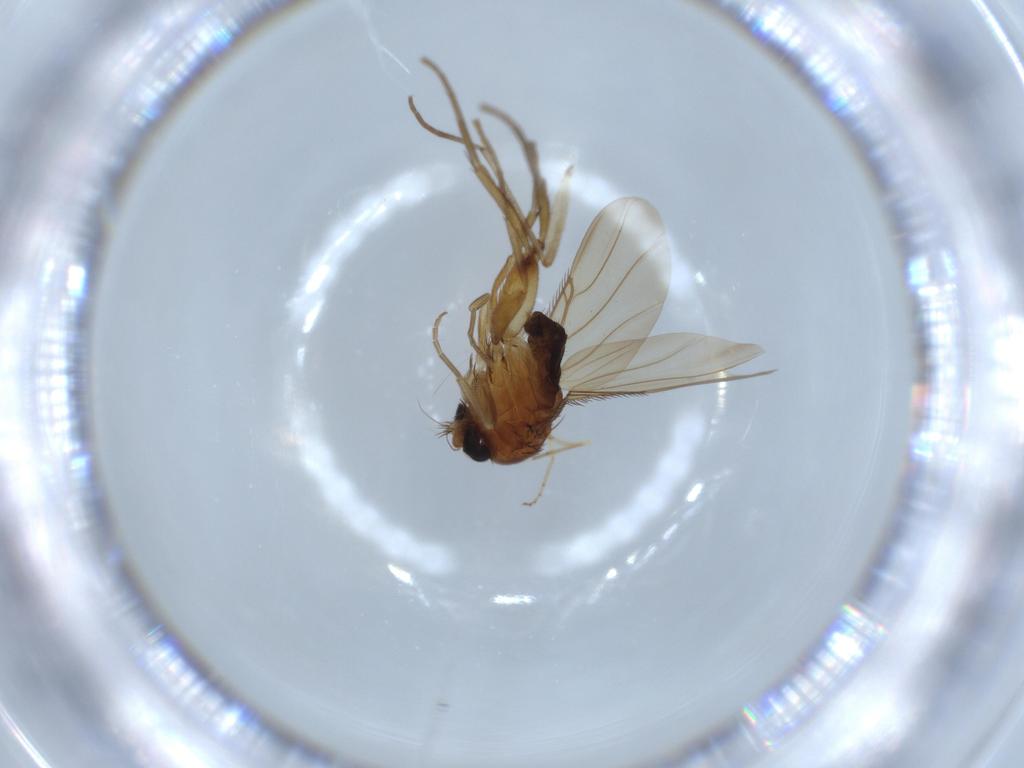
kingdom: Animalia
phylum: Arthropoda
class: Insecta
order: Diptera
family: Phoridae
